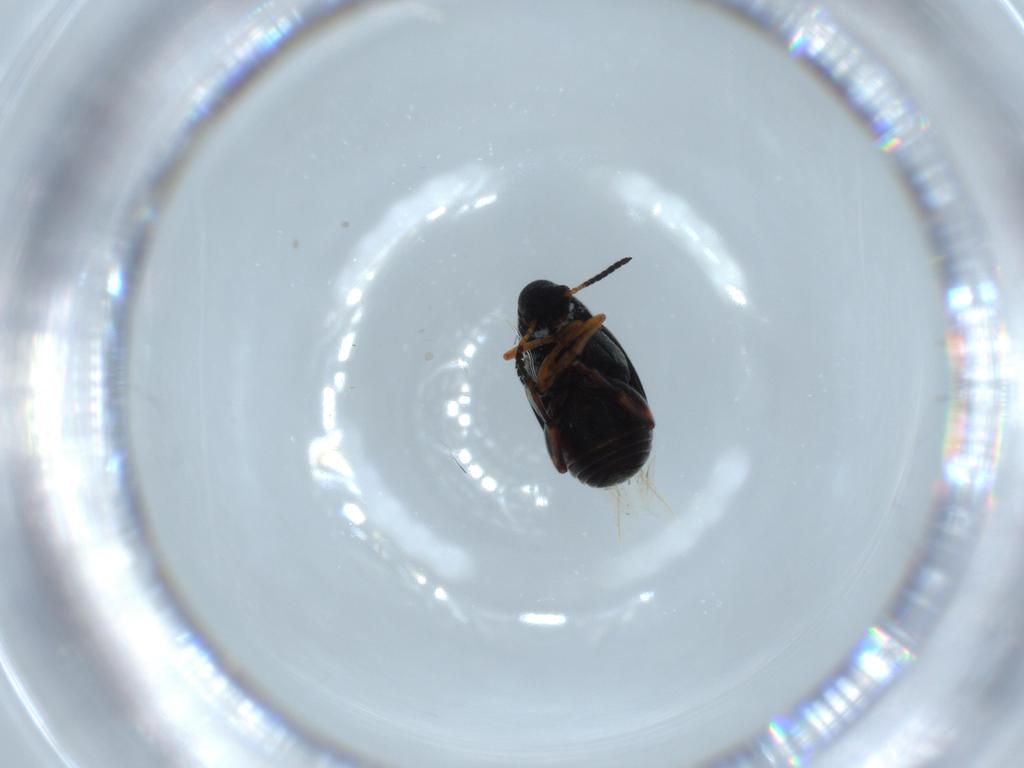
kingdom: Animalia
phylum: Arthropoda
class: Insecta
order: Coleoptera
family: Chrysomelidae
